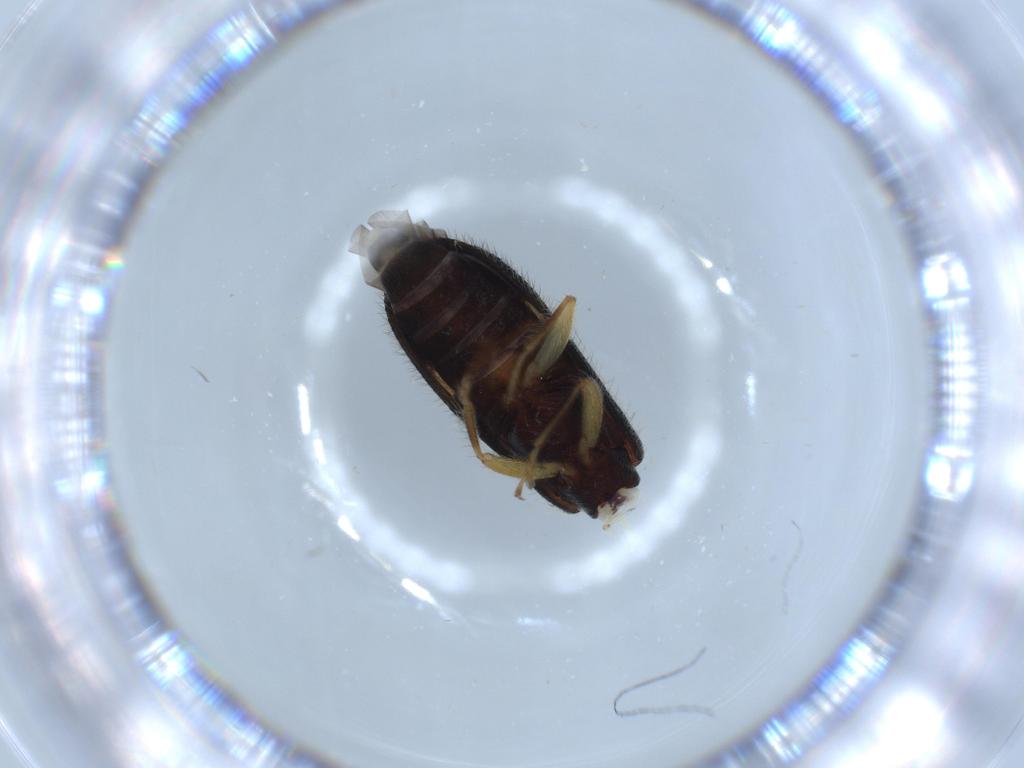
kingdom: Animalia
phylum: Arthropoda
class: Insecta
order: Coleoptera
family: Cleridae
